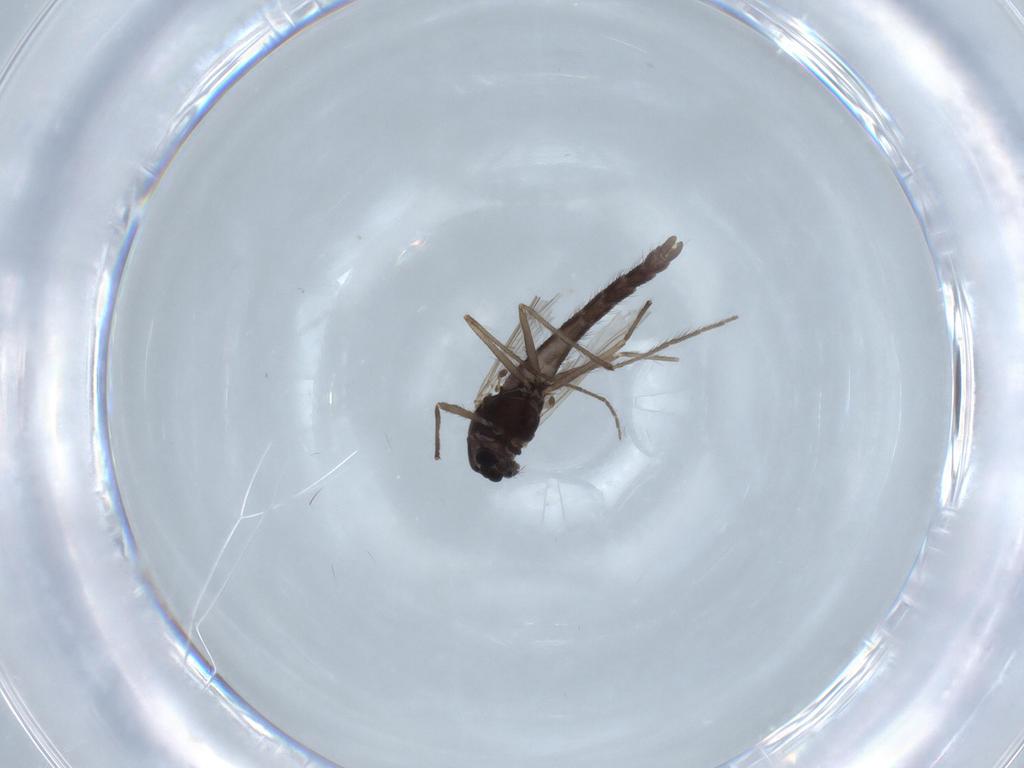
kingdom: Animalia
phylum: Arthropoda
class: Insecta
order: Diptera
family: Chironomidae
